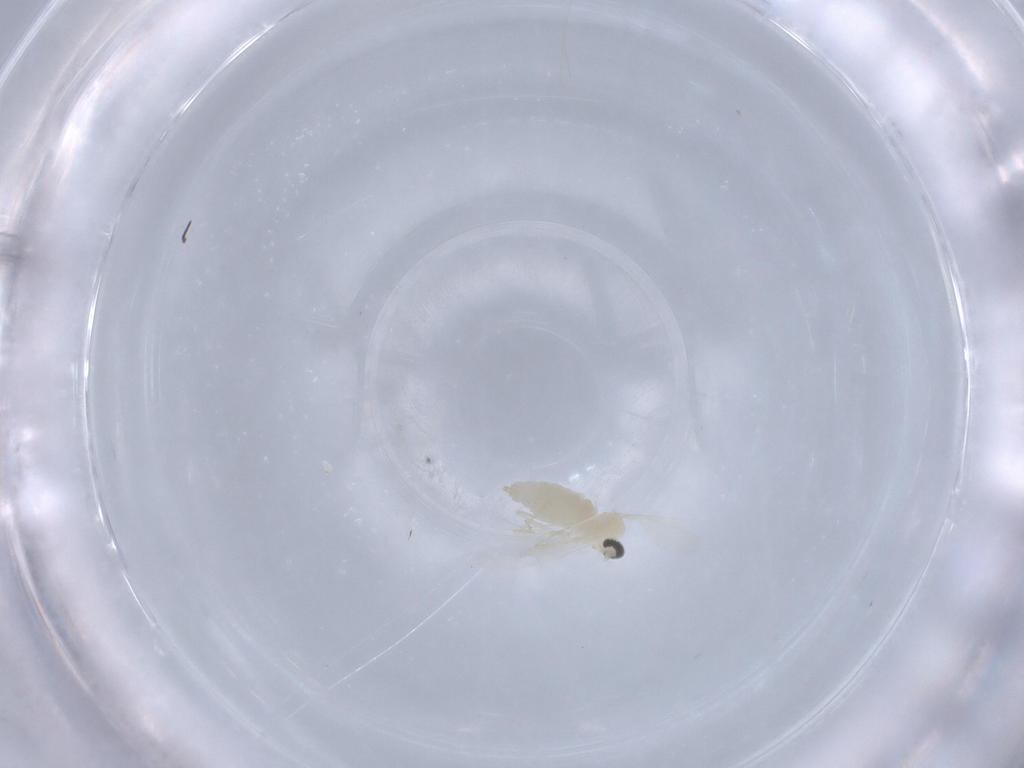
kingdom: Animalia
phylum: Arthropoda
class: Insecta
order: Diptera
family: Cecidomyiidae
